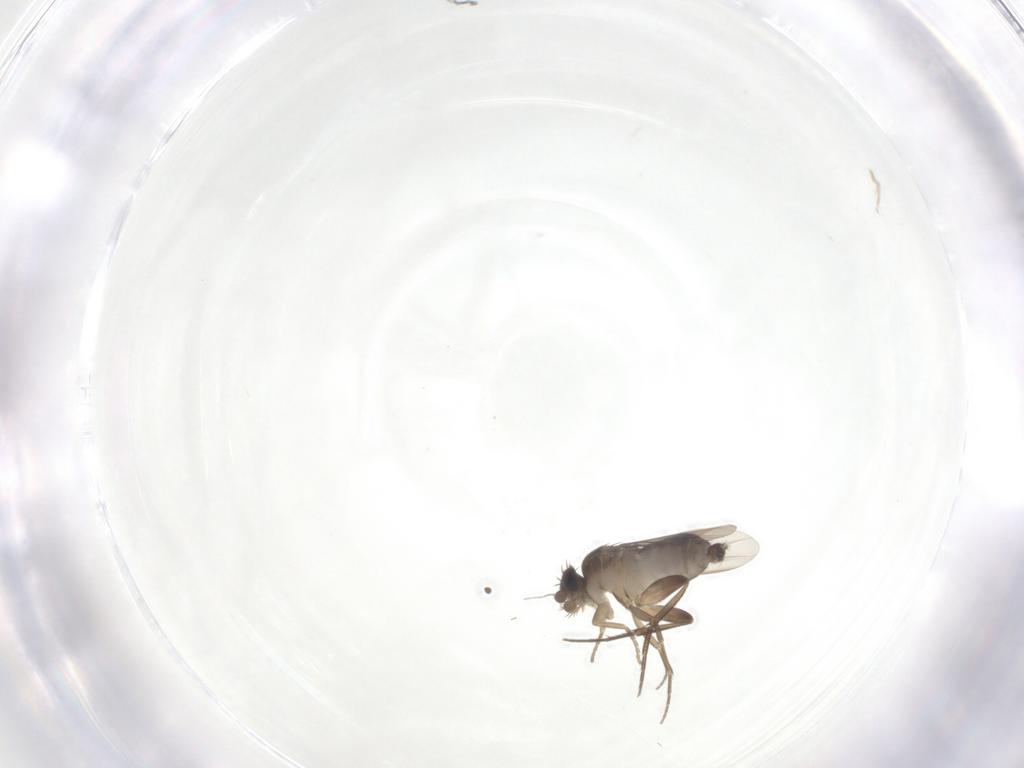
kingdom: Animalia
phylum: Arthropoda
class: Insecta
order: Diptera
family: Phoridae
